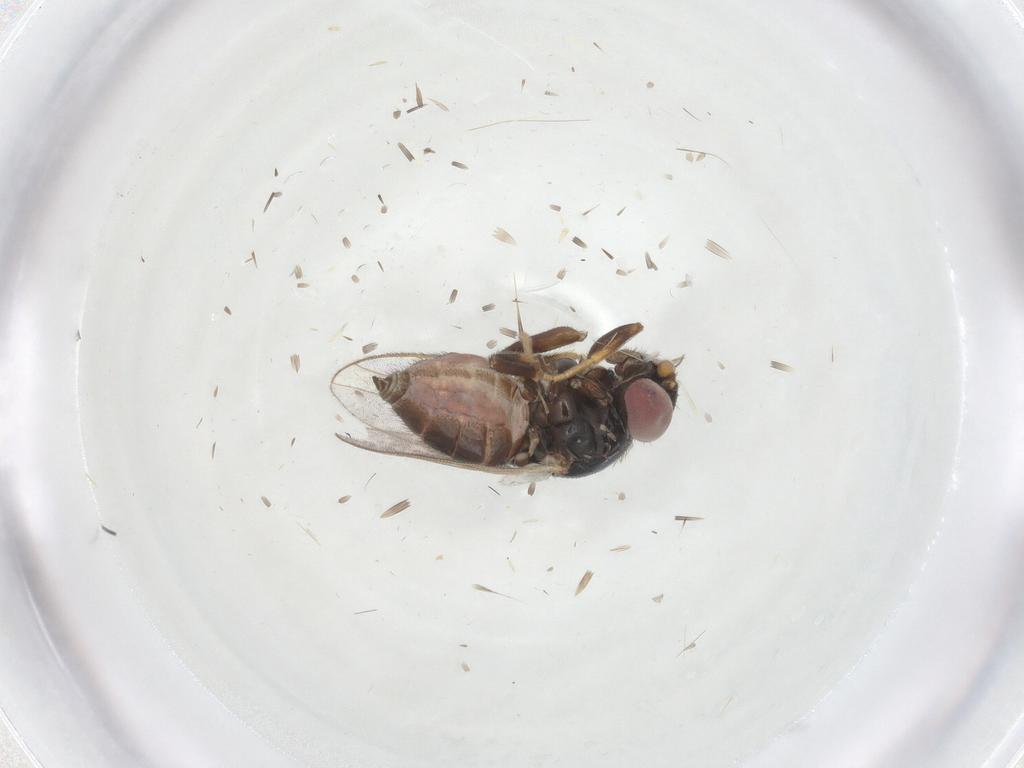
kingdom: Animalia
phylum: Arthropoda
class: Insecta
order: Diptera
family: Chloropidae
